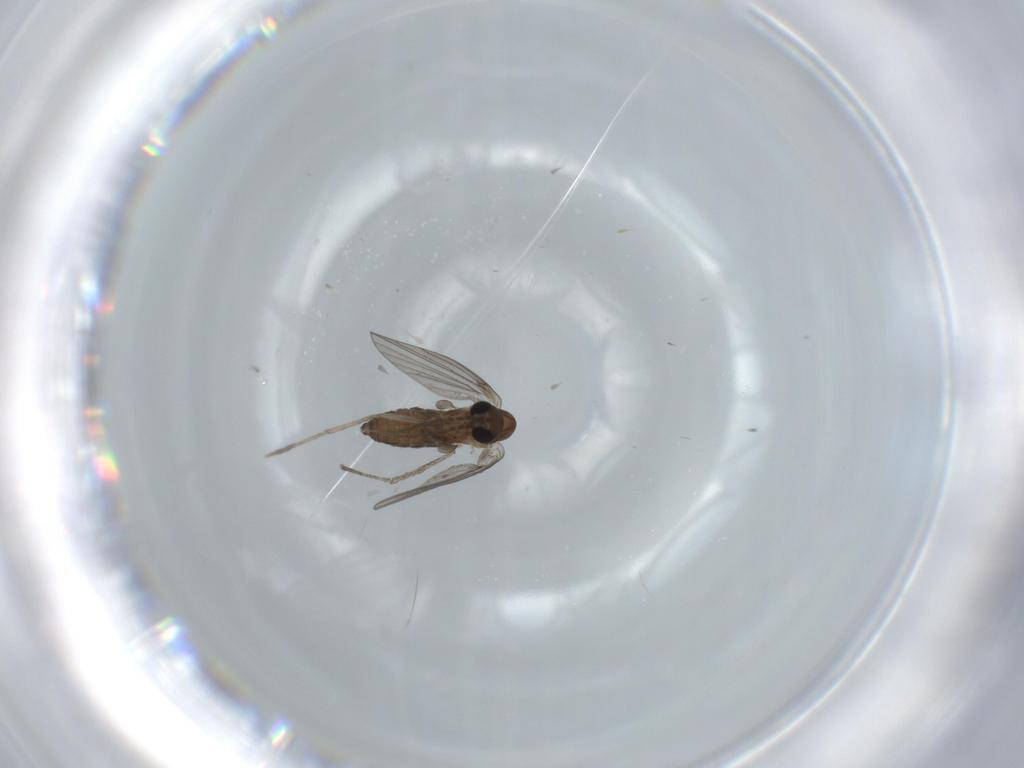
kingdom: Animalia
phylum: Arthropoda
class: Insecta
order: Diptera
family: Psychodidae
